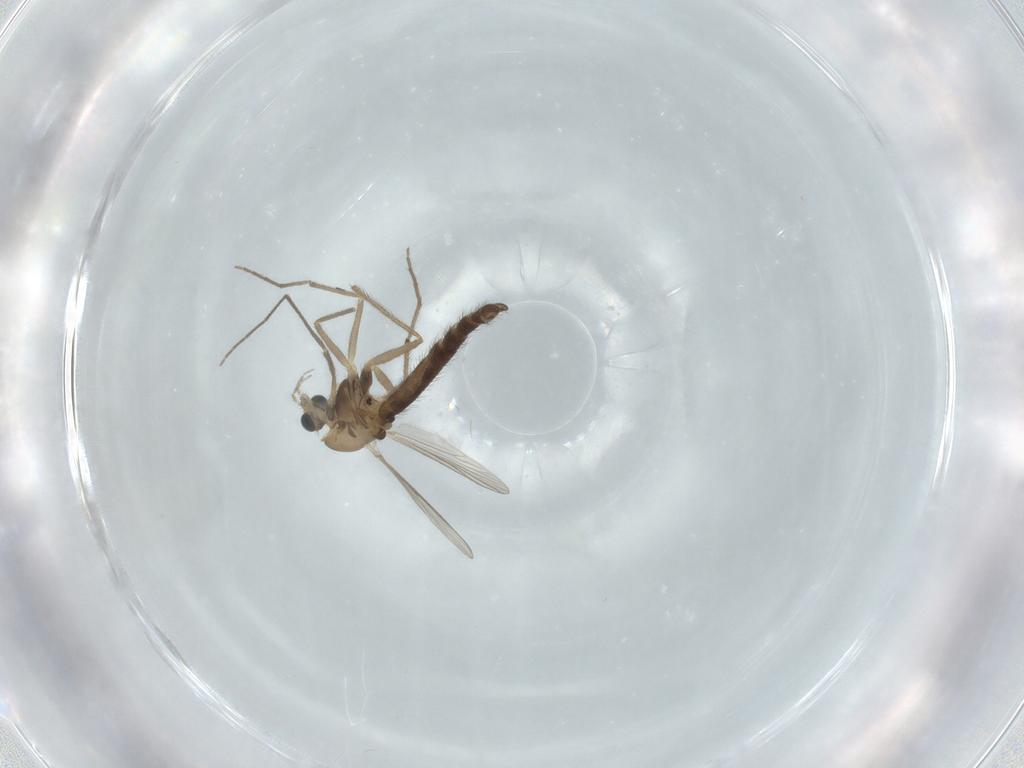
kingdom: Animalia
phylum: Arthropoda
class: Insecta
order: Diptera
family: Chironomidae
